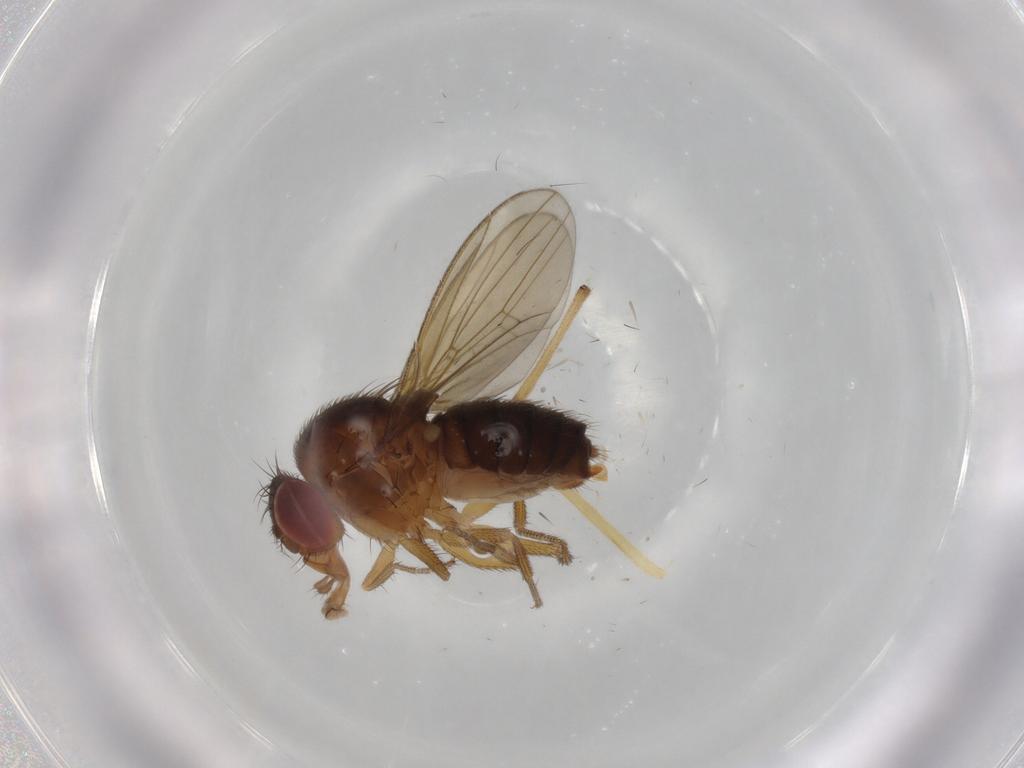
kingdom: Animalia
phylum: Arthropoda
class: Insecta
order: Diptera
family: Drosophilidae
